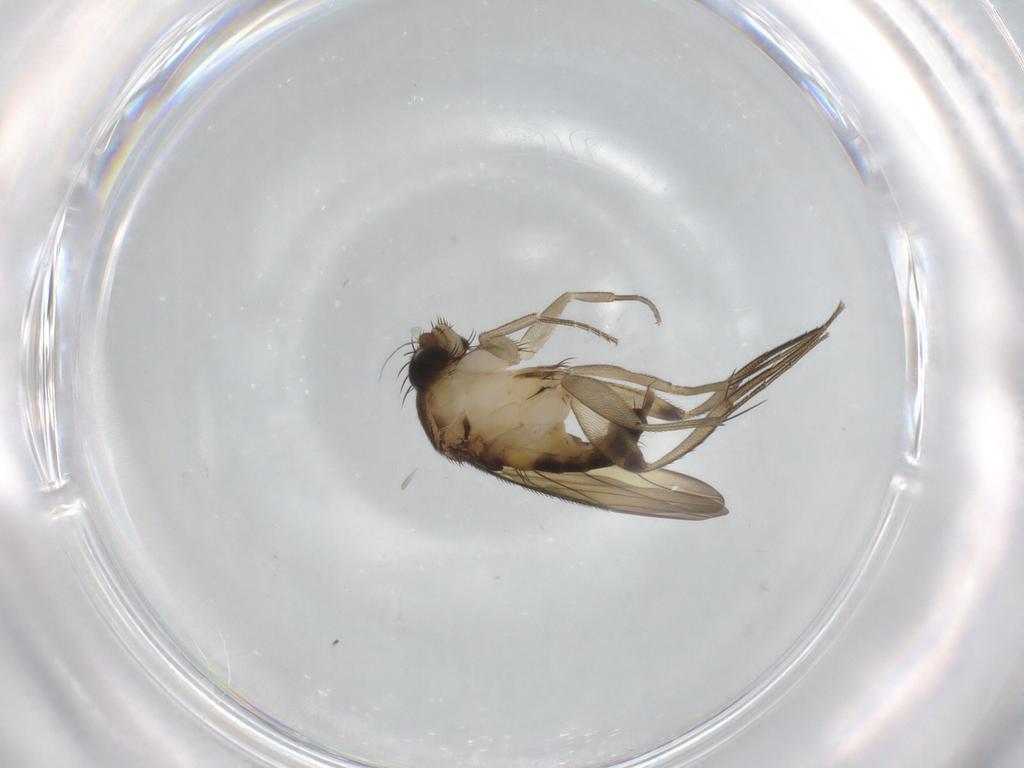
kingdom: Animalia
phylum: Arthropoda
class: Insecta
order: Diptera
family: Phoridae
